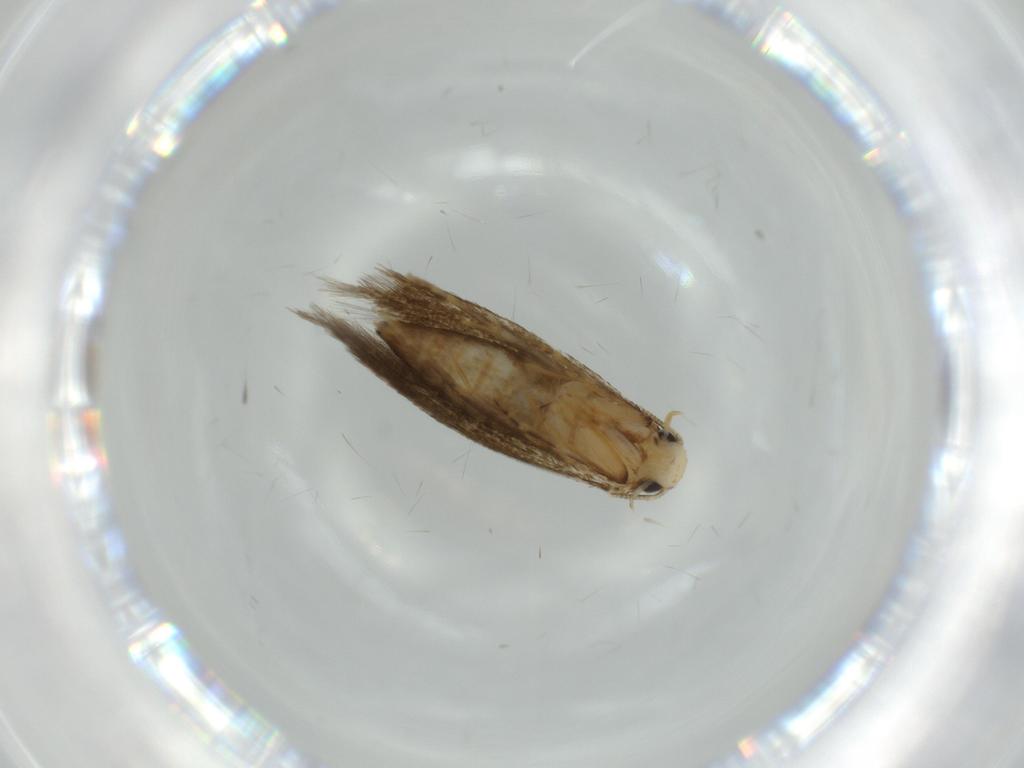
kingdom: Animalia
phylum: Arthropoda
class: Insecta
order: Lepidoptera
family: Tineidae
